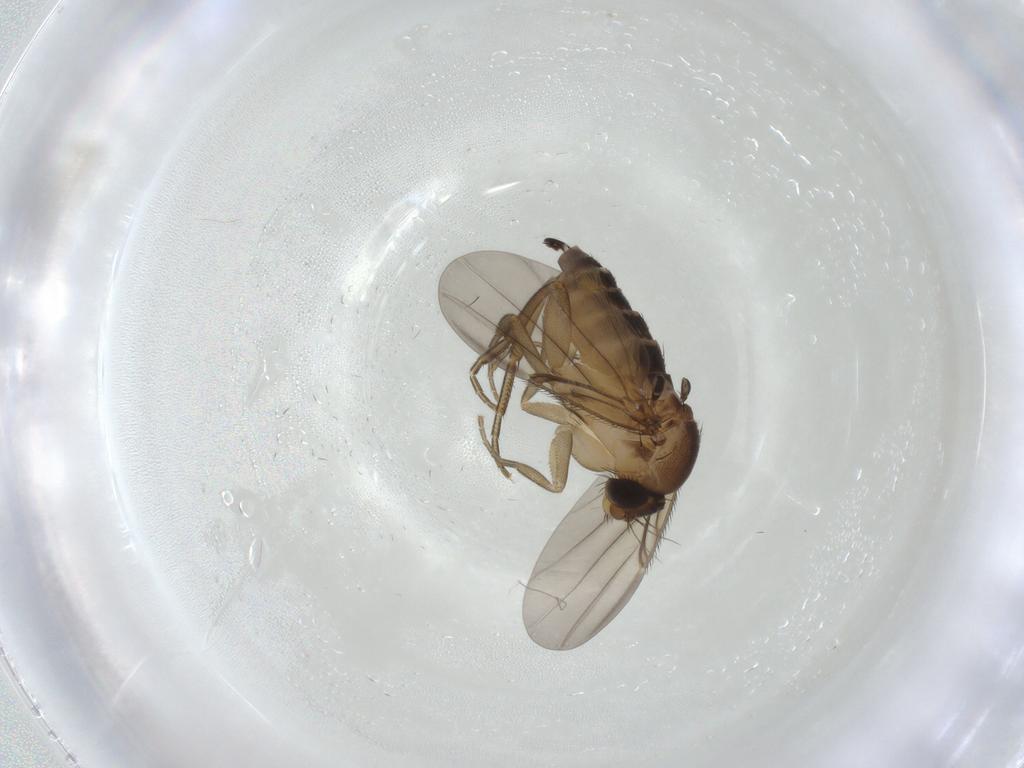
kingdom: Animalia
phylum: Arthropoda
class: Insecta
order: Diptera
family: Phoridae
